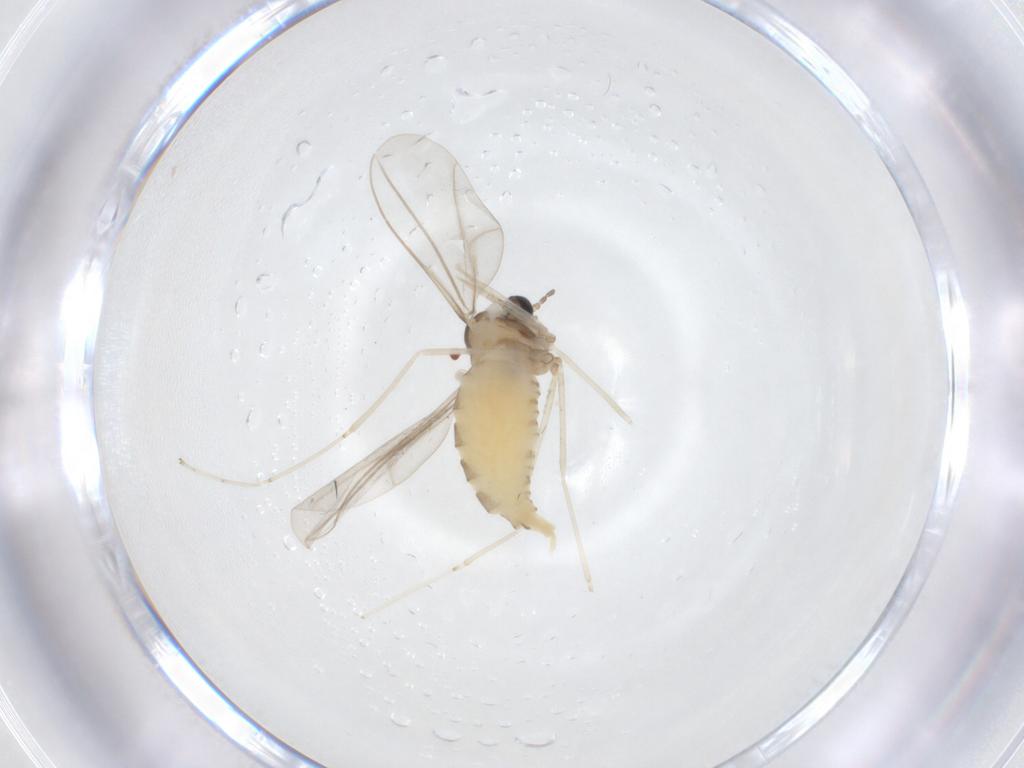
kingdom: Animalia
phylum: Arthropoda
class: Insecta
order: Diptera
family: Cecidomyiidae
